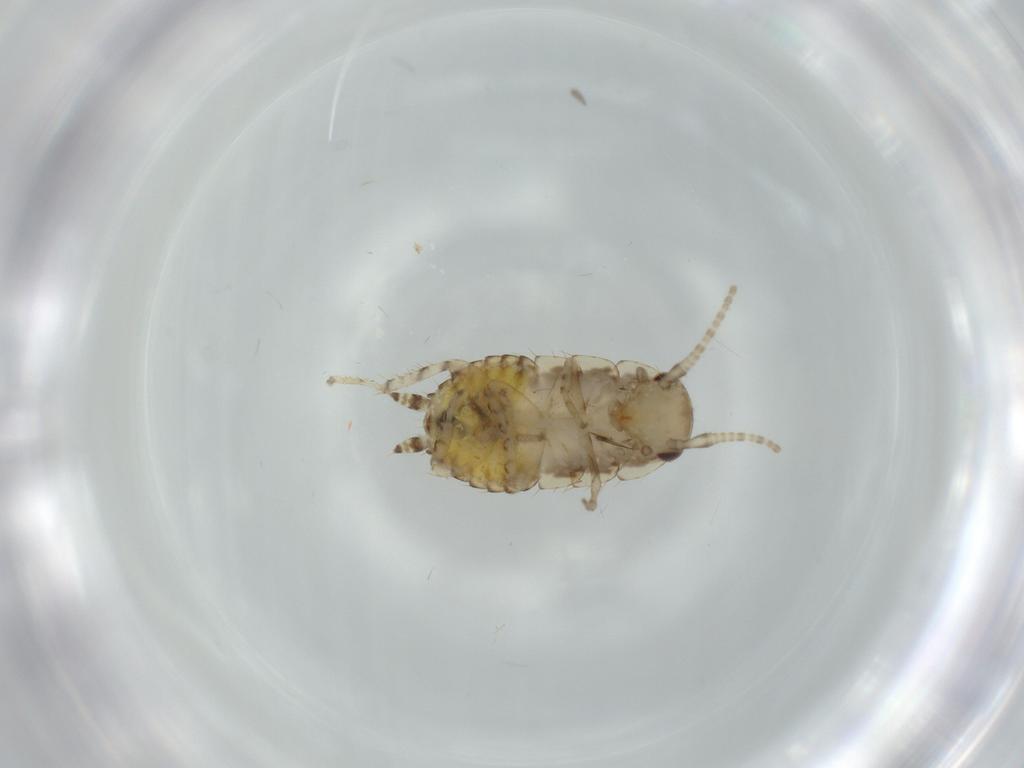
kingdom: Animalia
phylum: Arthropoda
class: Insecta
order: Blattodea
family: Ectobiidae
